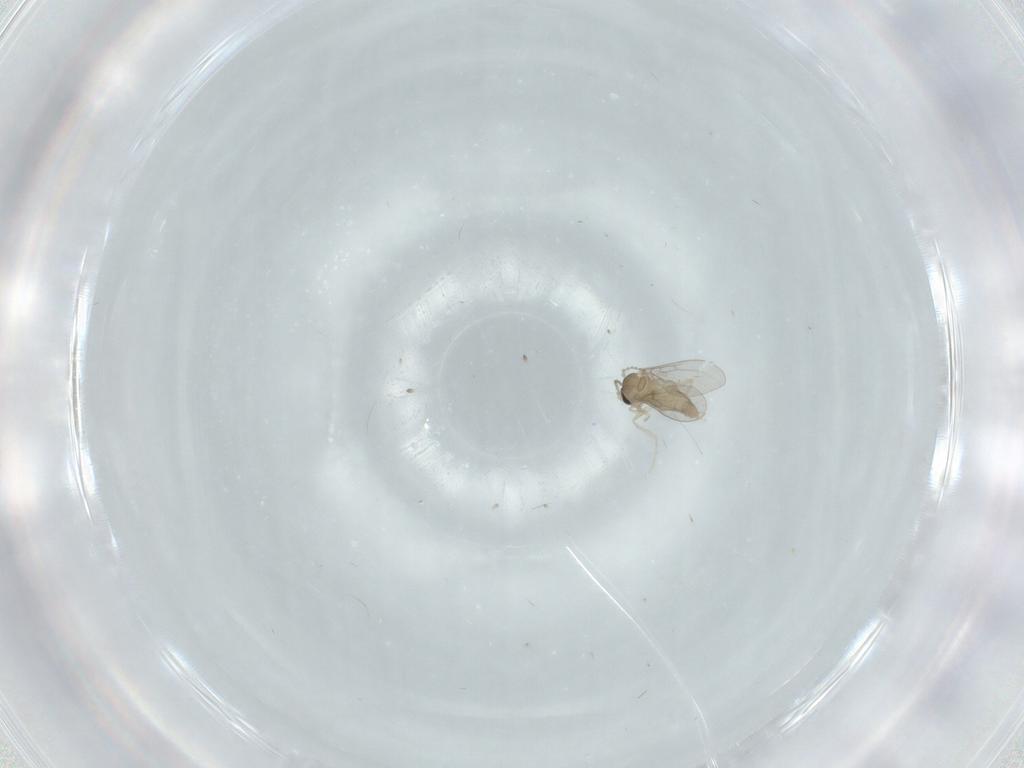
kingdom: Animalia
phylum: Arthropoda
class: Insecta
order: Diptera
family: Cecidomyiidae
